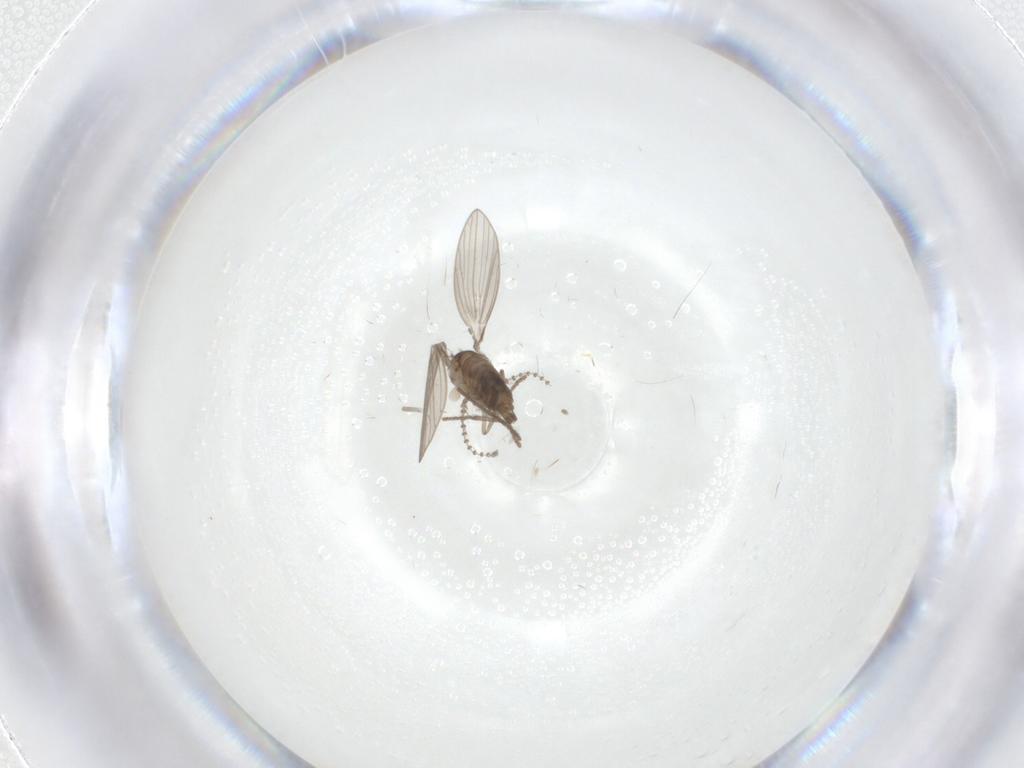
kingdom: Animalia
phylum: Arthropoda
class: Insecta
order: Diptera
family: Psychodidae
